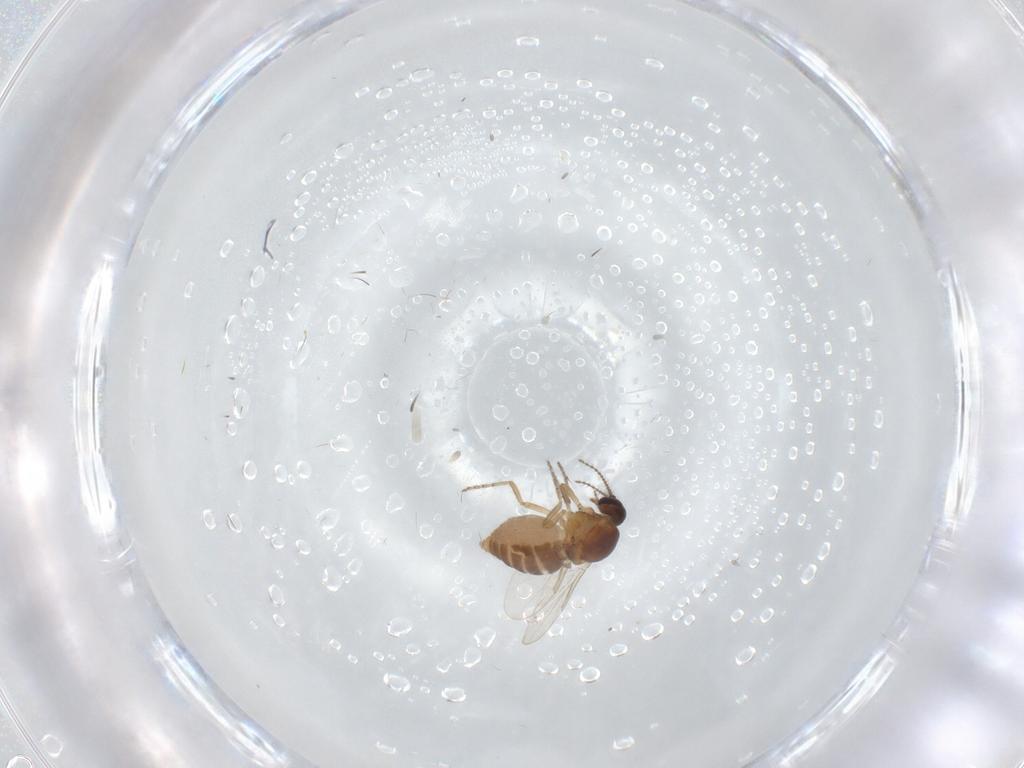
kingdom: Animalia
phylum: Arthropoda
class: Insecta
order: Diptera
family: Ceratopogonidae
